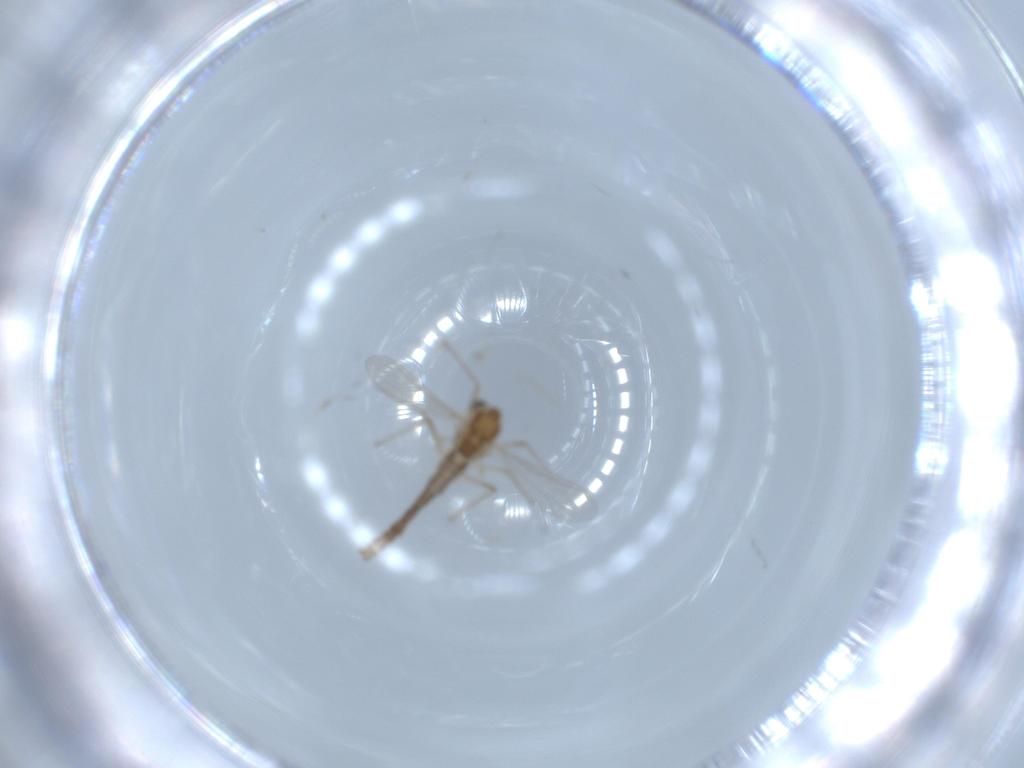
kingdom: Animalia
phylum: Arthropoda
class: Insecta
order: Diptera
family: Chironomidae
